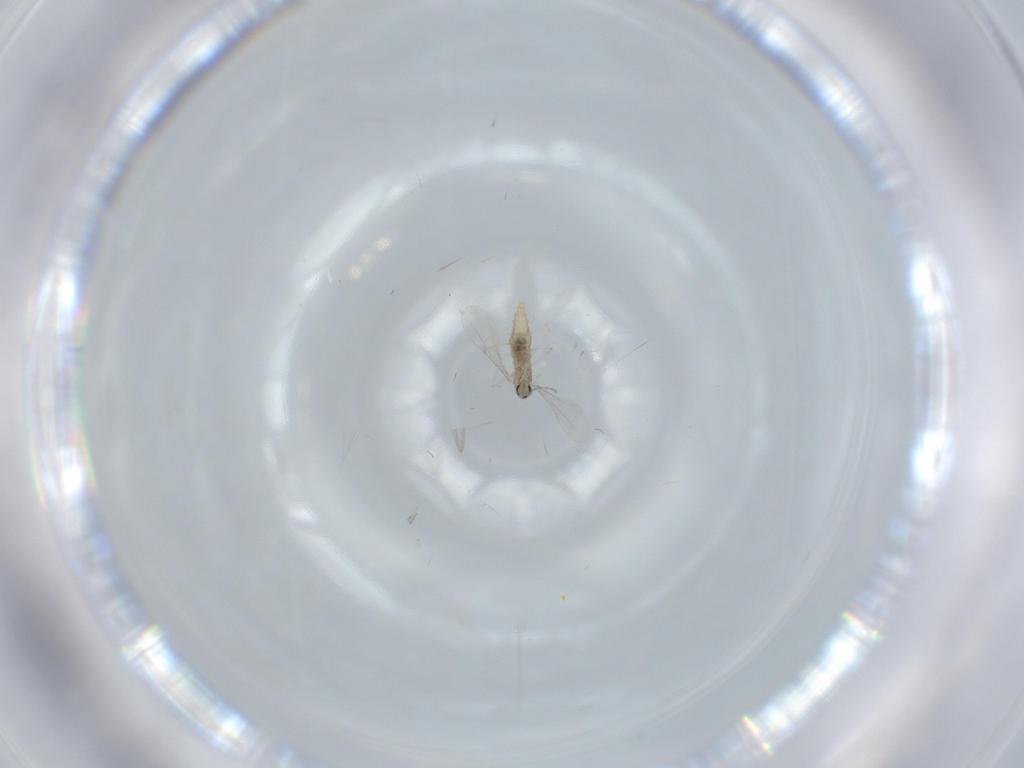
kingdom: Animalia
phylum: Arthropoda
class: Insecta
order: Diptera
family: Cecidomyiidae
